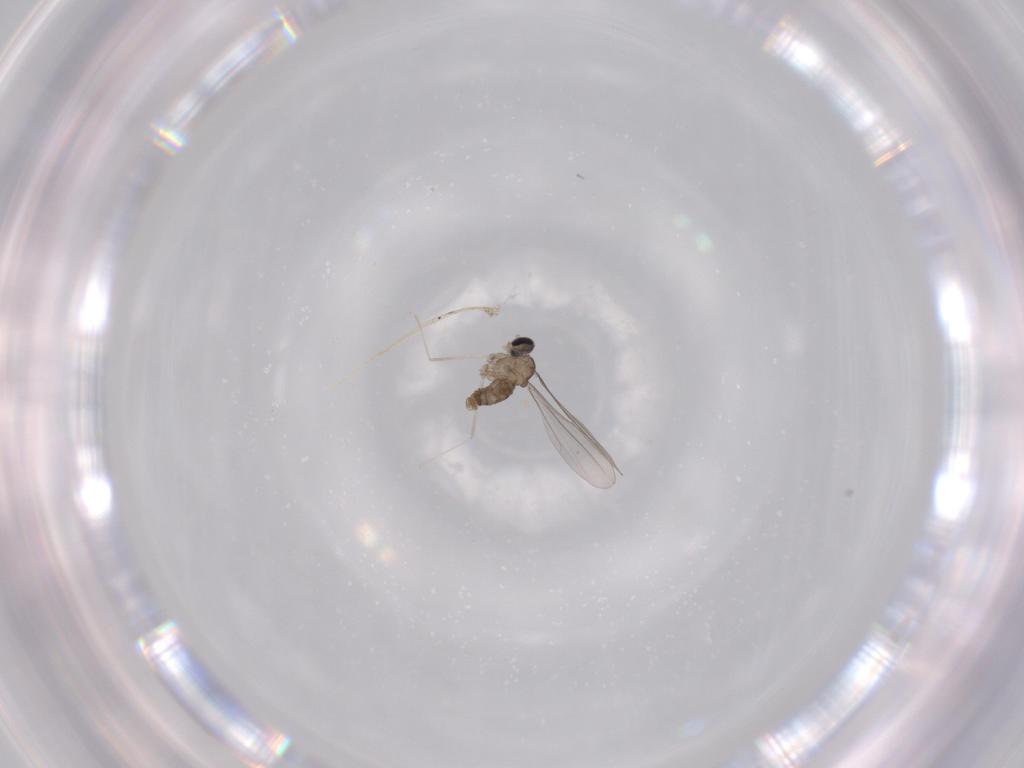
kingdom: Animalia
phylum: Arthropoda
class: Insecta
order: Diptera
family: Cecidomyiidae
